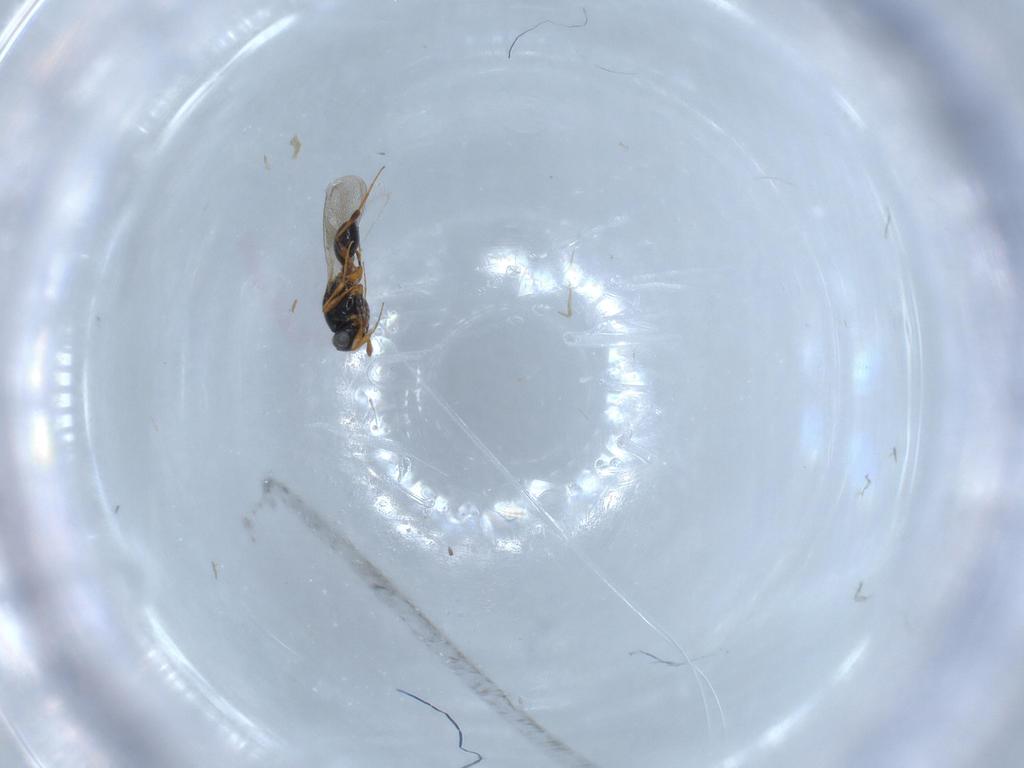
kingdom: Animalia
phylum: Arthropoda
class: Insecta
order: Hymenoptera
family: Platygastridae
